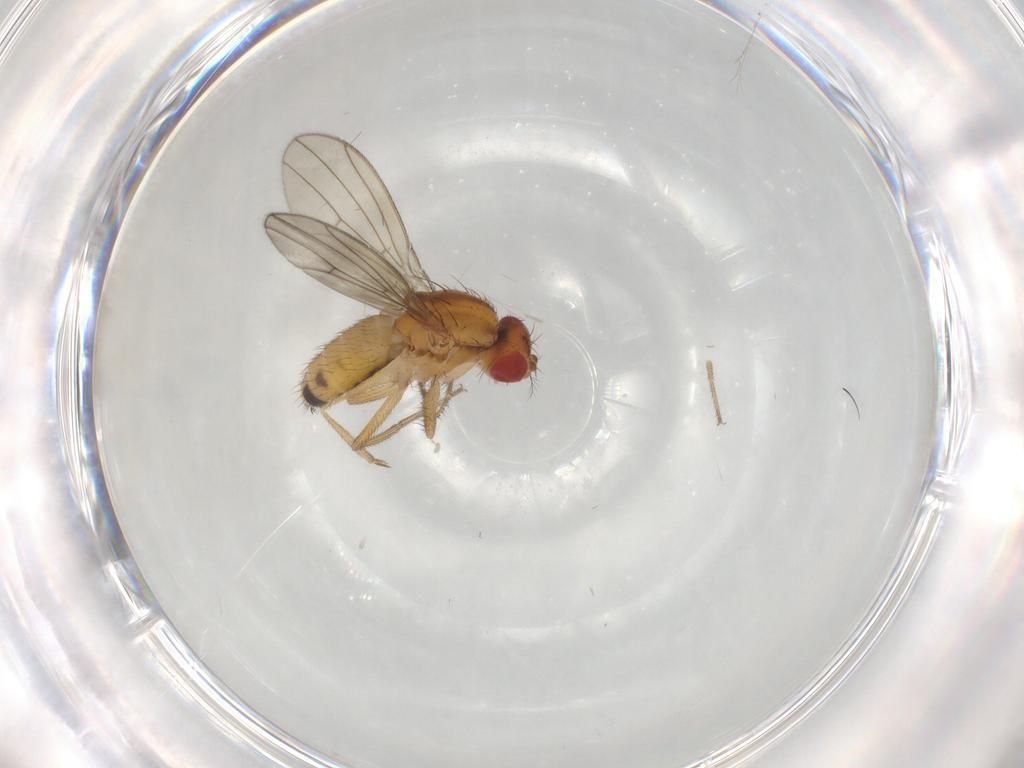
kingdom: Animalia
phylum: Arthropoda
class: Insecta
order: Diptera
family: Drosophilidae
